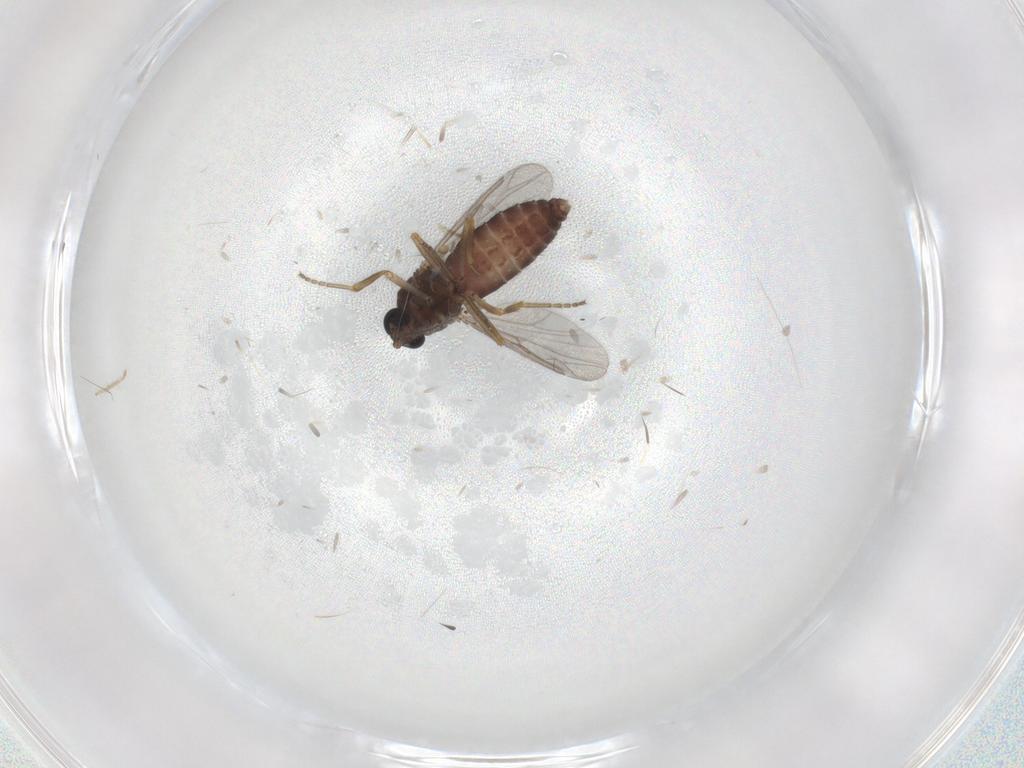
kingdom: Animalia
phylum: Arthropoda
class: Insecta
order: Diptera
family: Ceratopogonidae
